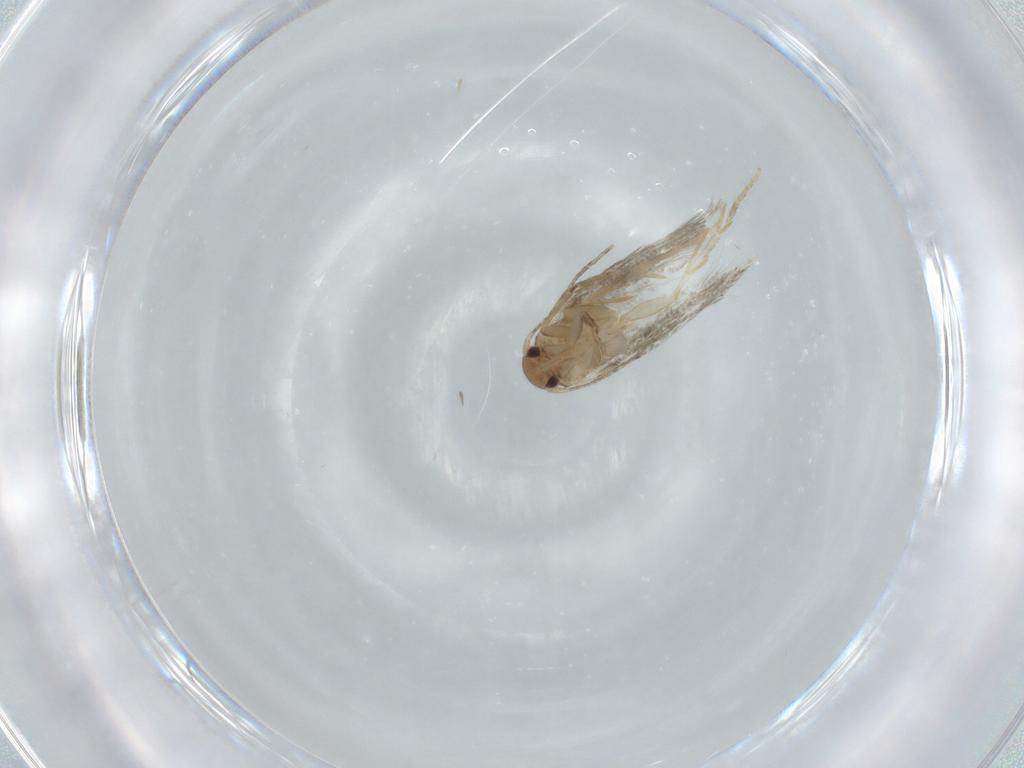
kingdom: Animalia
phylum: Arthropoda
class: Insecta
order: Lepidoptera
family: Elachistidae
